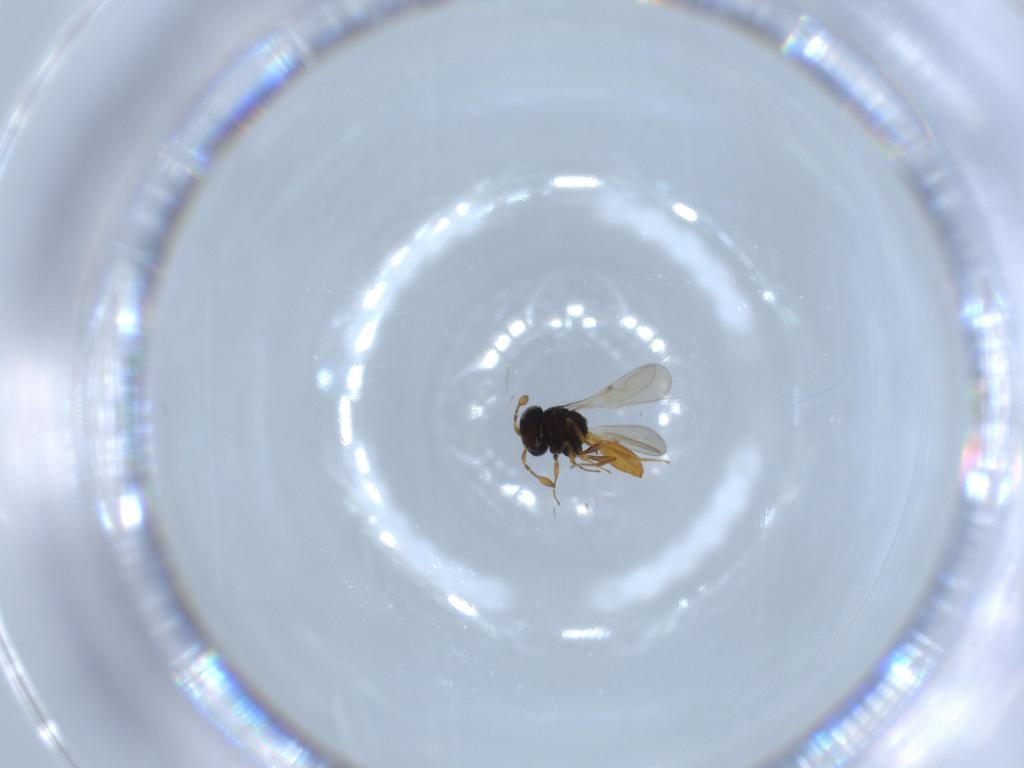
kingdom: Animalia
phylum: Arthropoda
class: Insecta
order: Hymenoptera
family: Scelionidae
